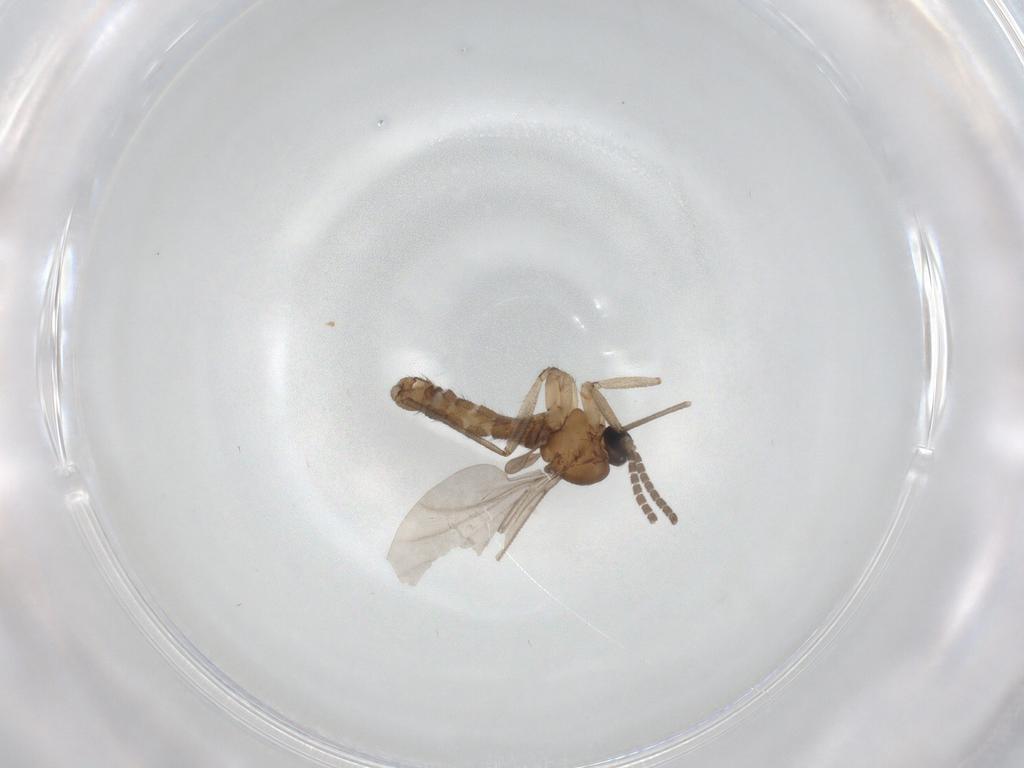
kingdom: Animalia
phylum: Arthropoda
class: Insecta
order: Diptera
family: Sciaridae
